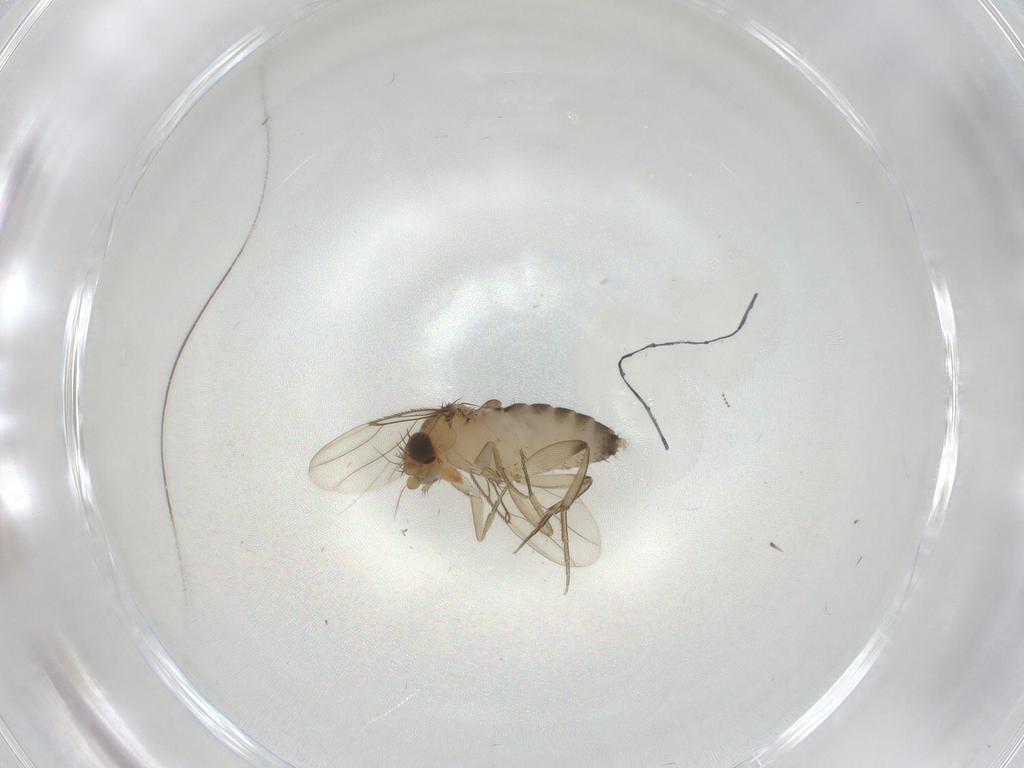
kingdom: Animalia
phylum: Arthropoda
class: Insecta
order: Diptera
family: Phoridae
